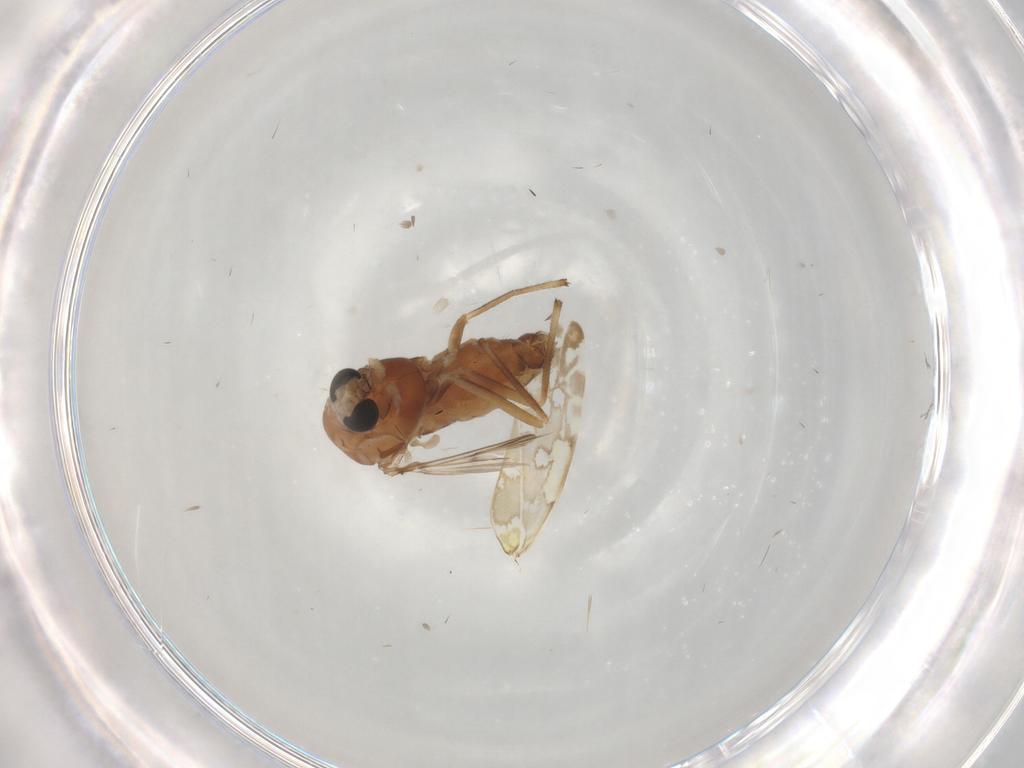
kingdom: Animalia
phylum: Arthropoda
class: Insecta
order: Diptera
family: Chironomidae
